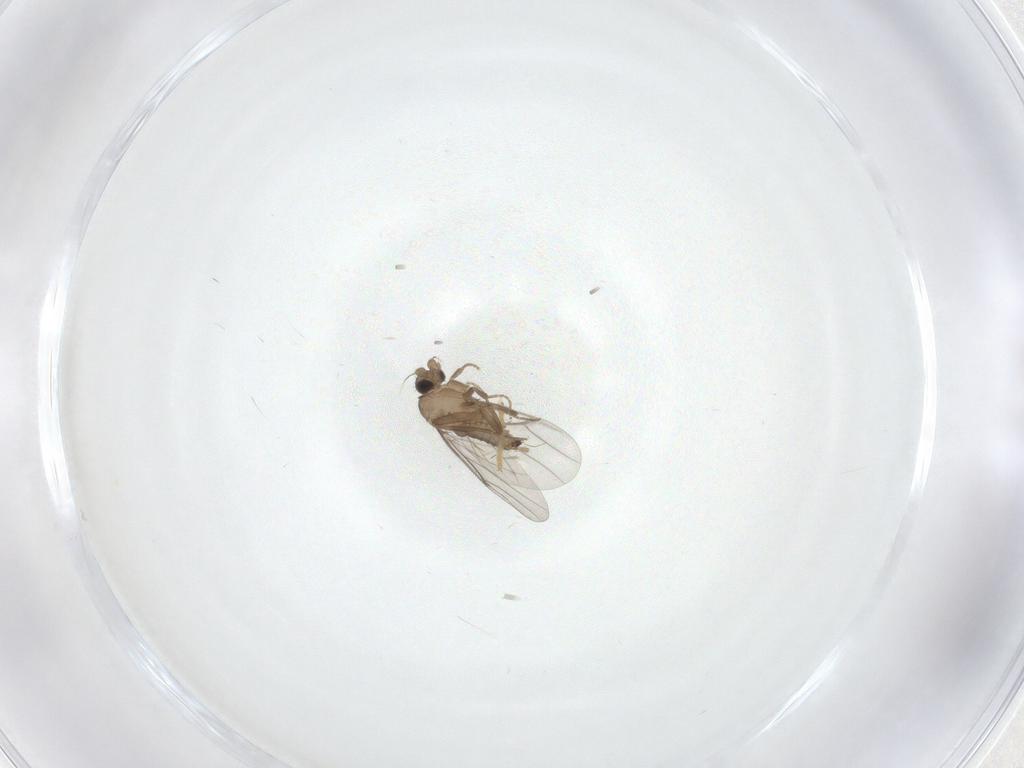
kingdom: Animalia
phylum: Arthropoda
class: Insecta
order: Diptera
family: Chironomidae
